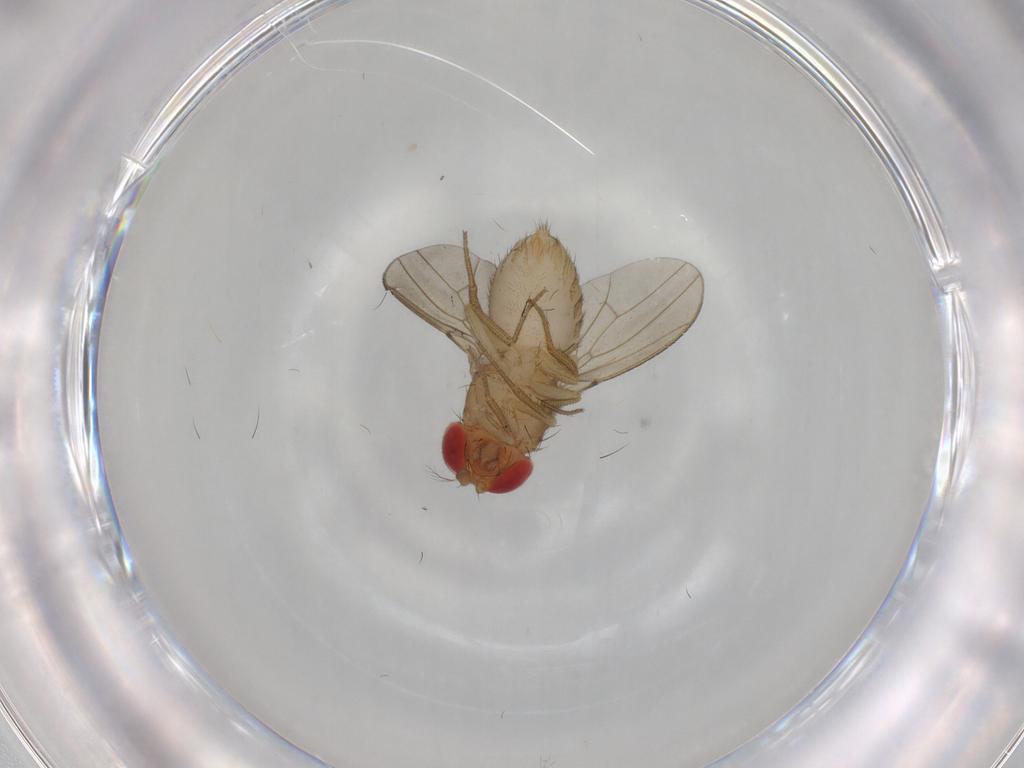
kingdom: Animalia
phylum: Arthropoda
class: Insecta
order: Diptera
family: Drosophilidae
